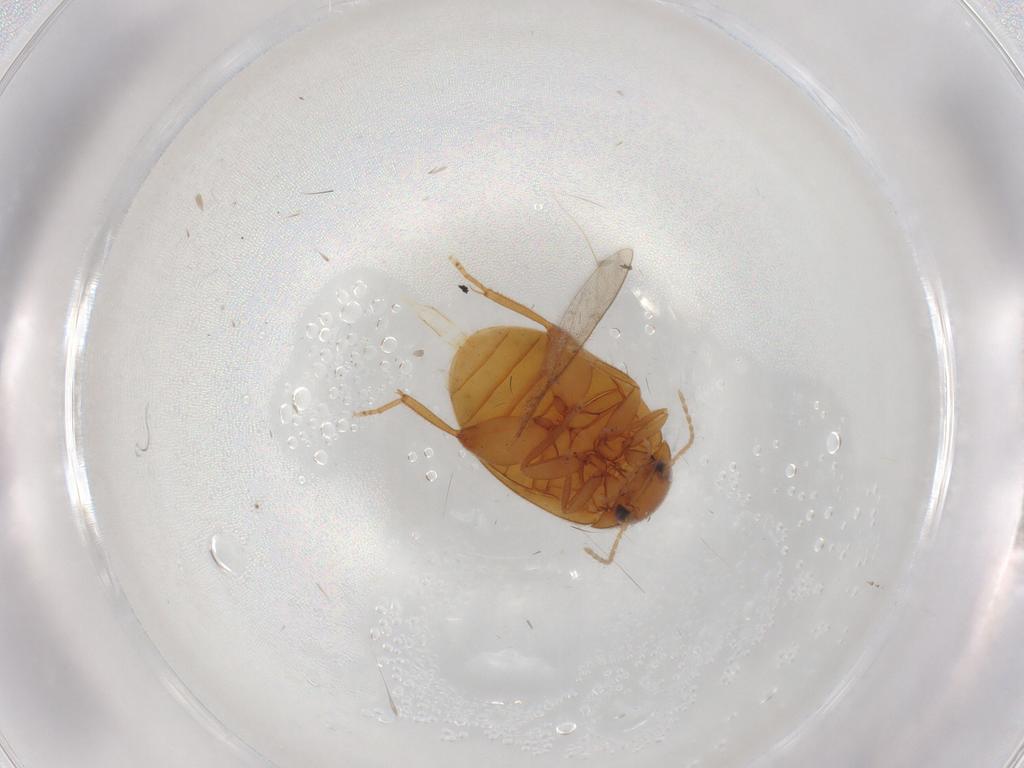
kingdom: Animalia
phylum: Arthropoda
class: Insecta
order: Coleoptera
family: Scirtidae
